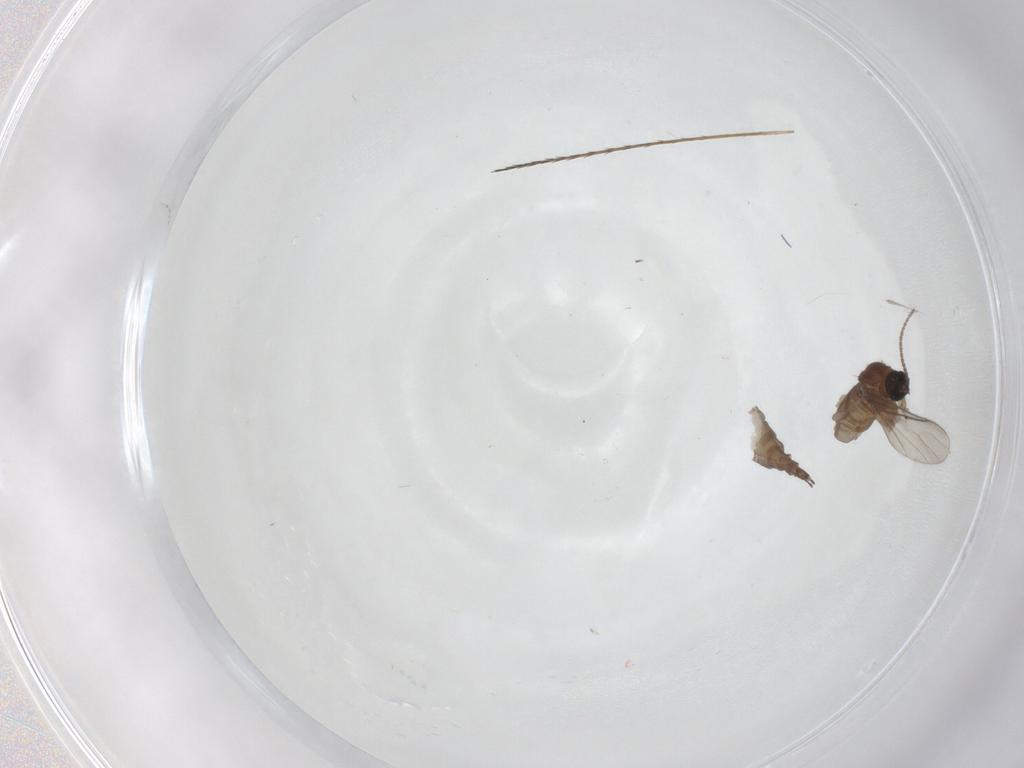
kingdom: Animalia
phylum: Arthropoda
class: Insecta
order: Diptera
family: Sciaridae
